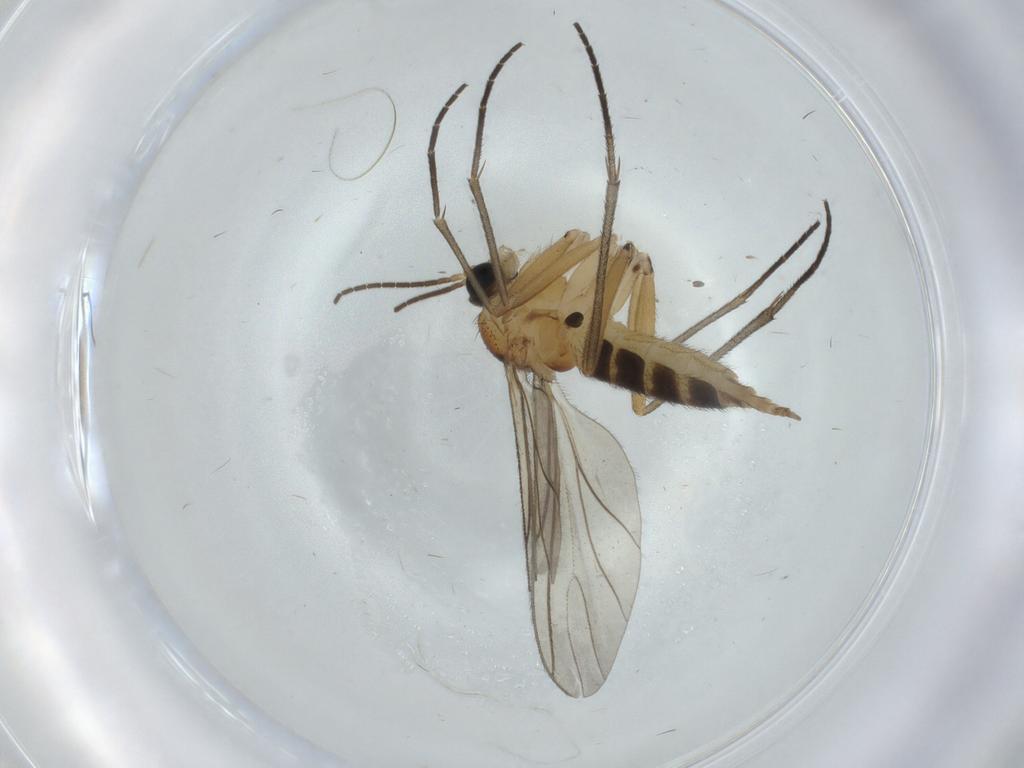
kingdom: Animalia
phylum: Arthropoda
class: Insecta
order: Diptera
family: Sciaridae
